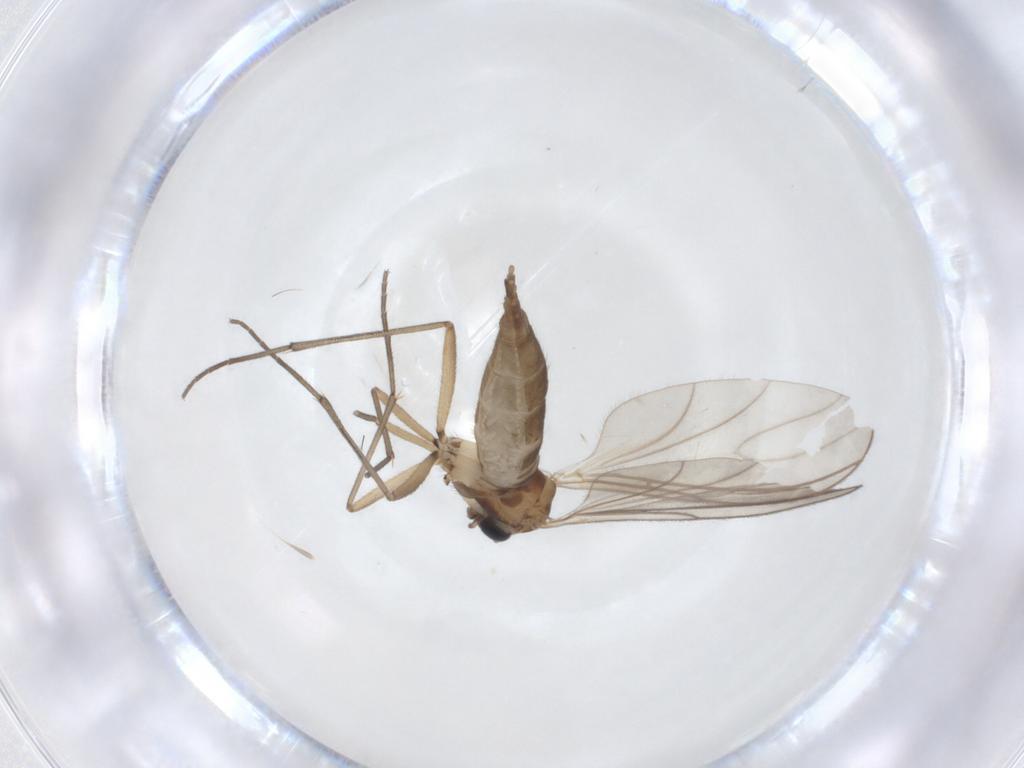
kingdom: Animalia
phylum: Arthropoda
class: Insecta
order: Diptera
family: Sciaridae
